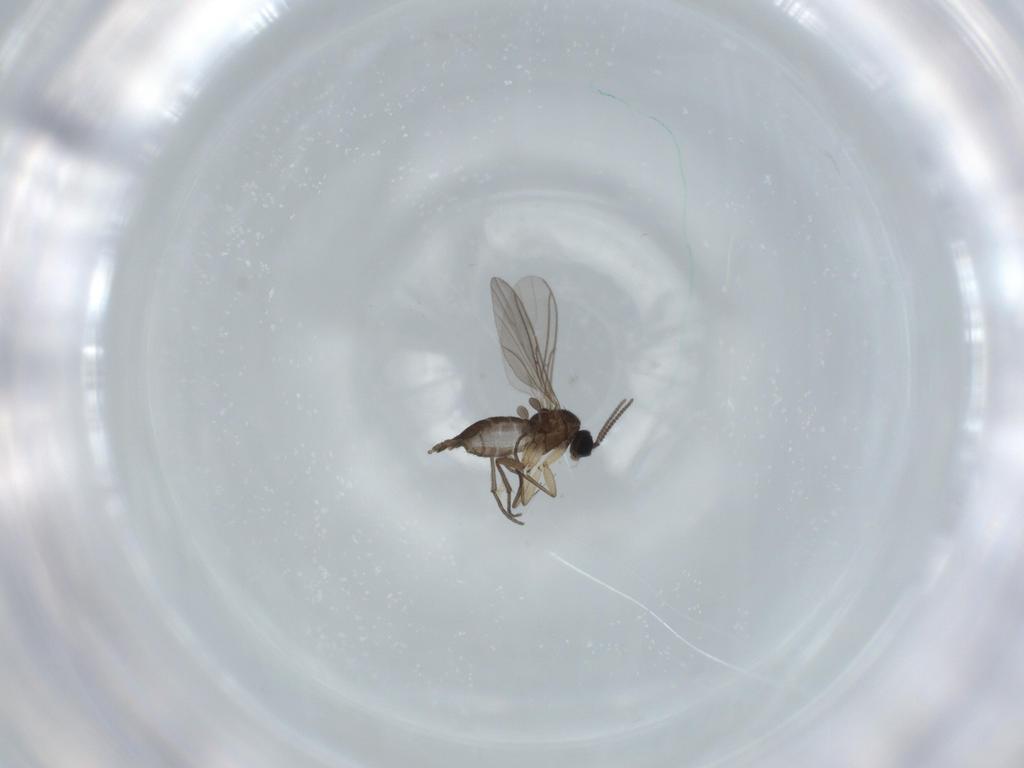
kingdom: Animalia
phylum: Arthropoda
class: Insecta
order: Diptera
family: Sciaridae
